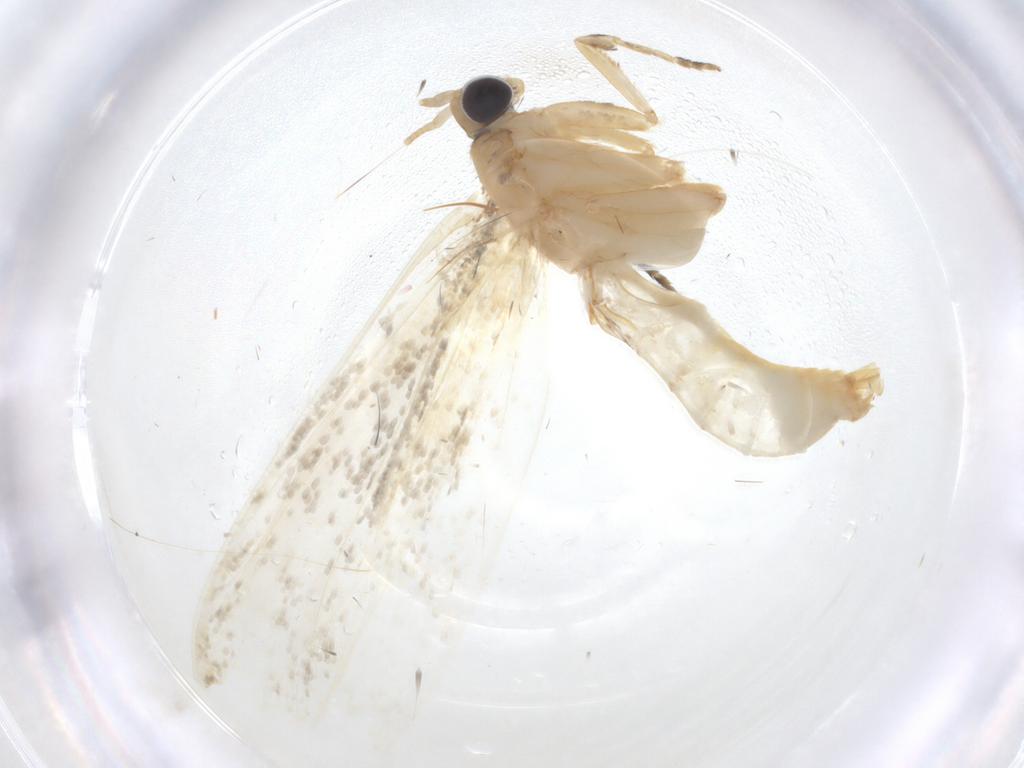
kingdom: Animalia
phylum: Arthropoda
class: Insecta
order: Lepidoptera
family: Tineidae
